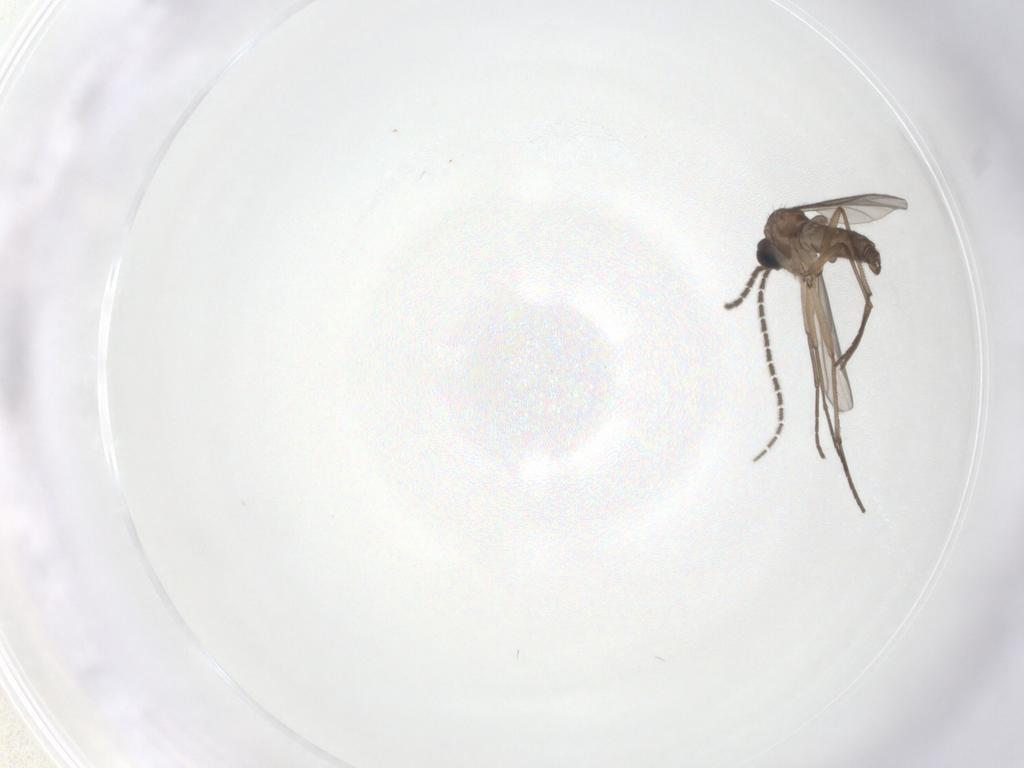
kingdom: Animalia
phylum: Arthropoda
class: Insecta
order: Diptera
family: Sciaridae
